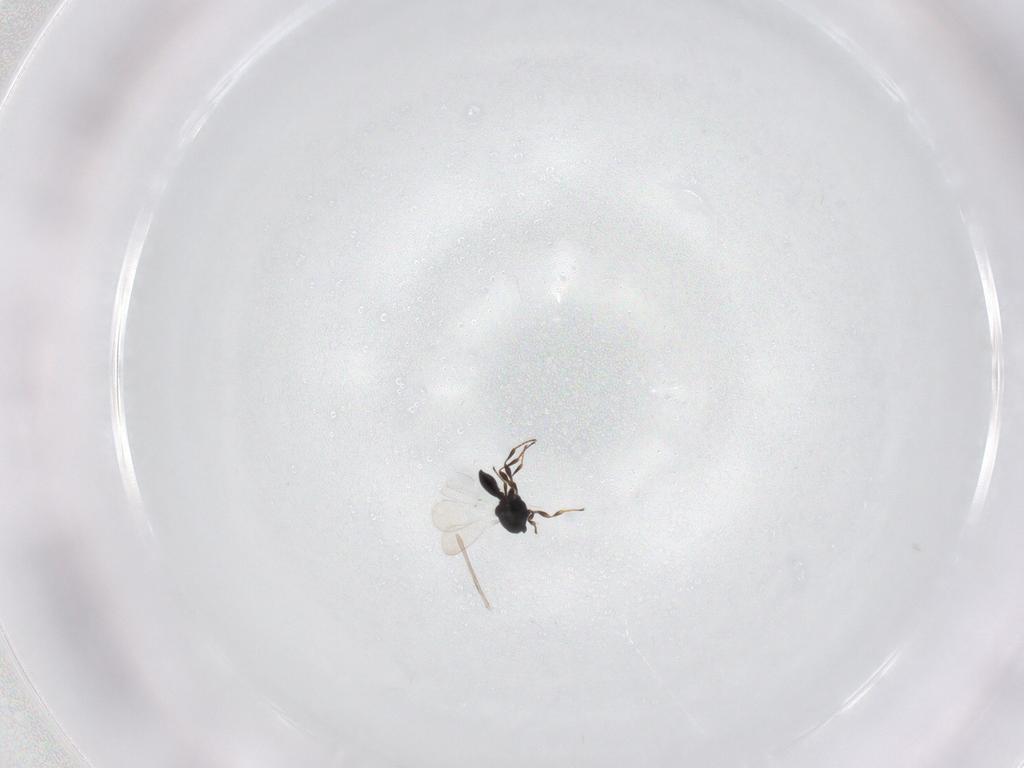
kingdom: Animalia
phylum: Arthropoda
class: Insecta
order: Hymenoptera
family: Platygastridae
